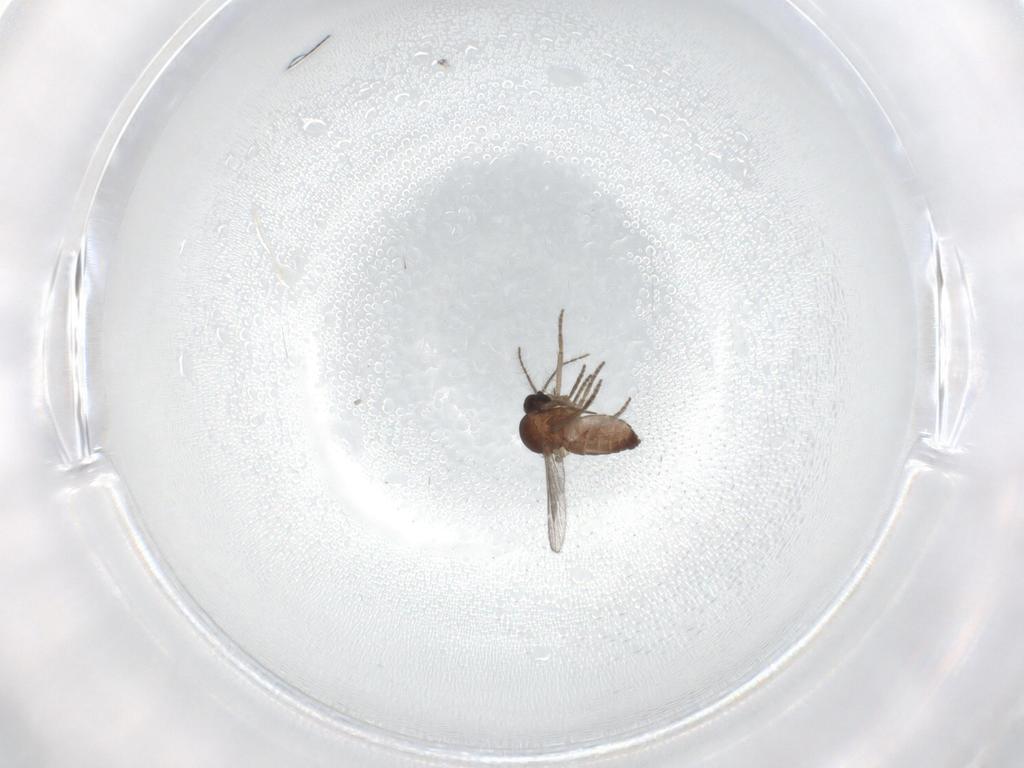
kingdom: Animalia
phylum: Arthropoda
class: Insecta
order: Diptera
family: Ceratopogonidae
